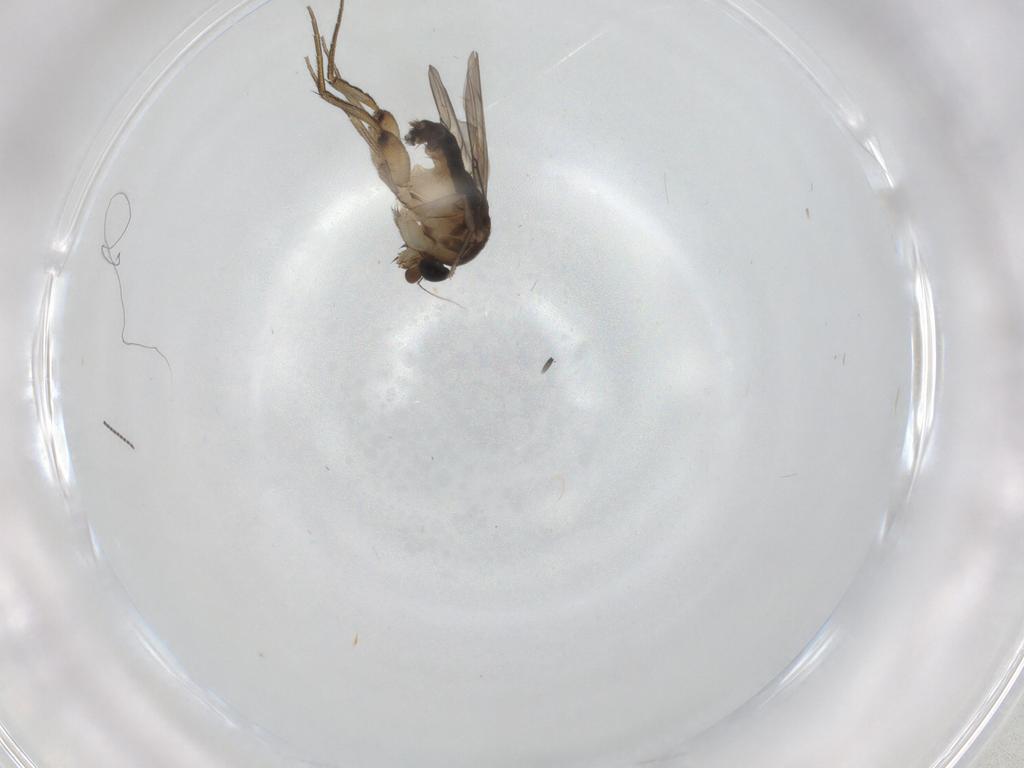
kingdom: Animalia
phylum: Arthropoda
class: Insecta
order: Diptera
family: Phoridae
